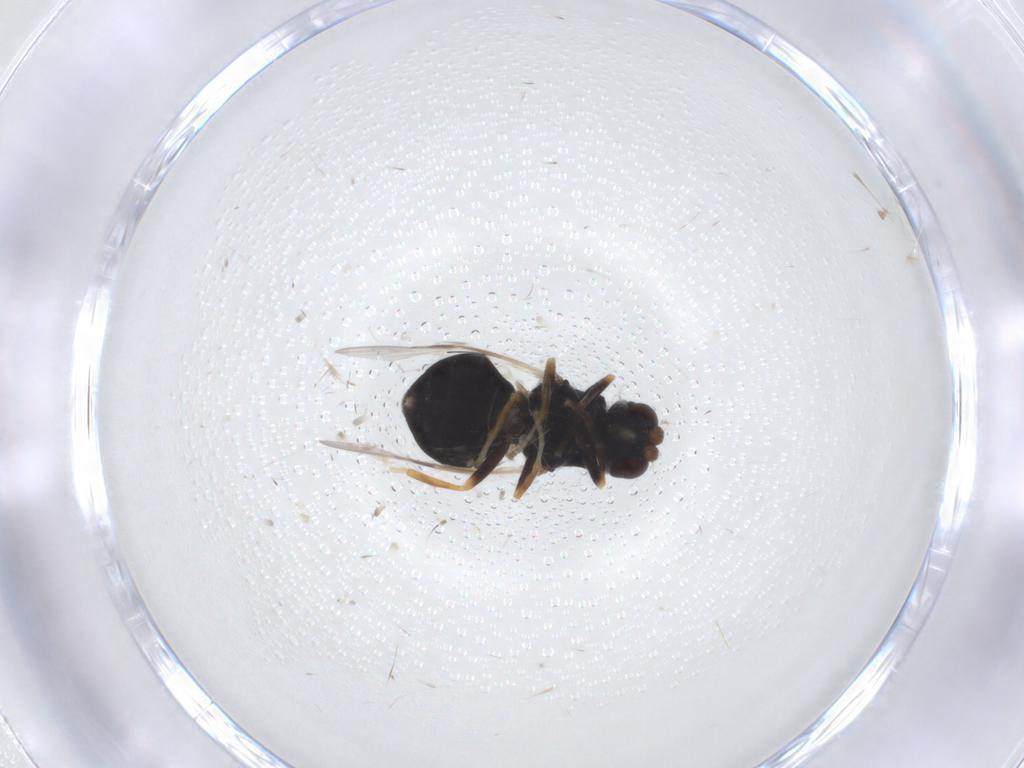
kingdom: Animalia
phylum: Arthropoda
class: Insecta
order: Diptera
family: Stratiomyidae
